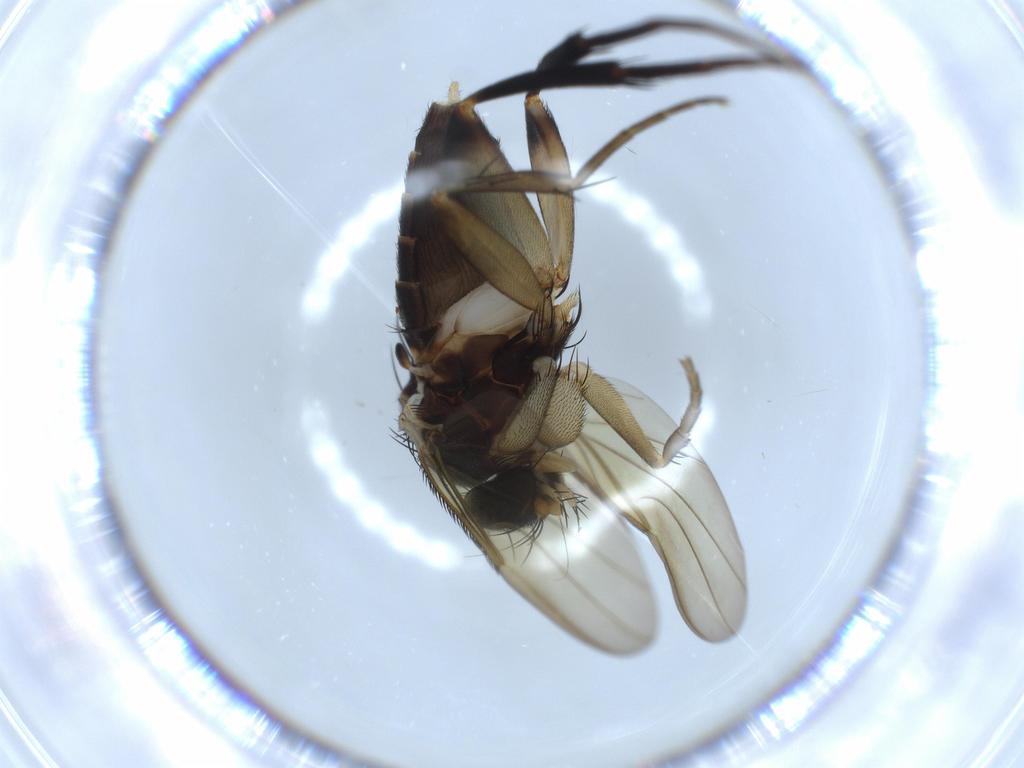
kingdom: Animalia
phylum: Arthropoda
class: Insecta
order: Diptera
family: Phoridae
